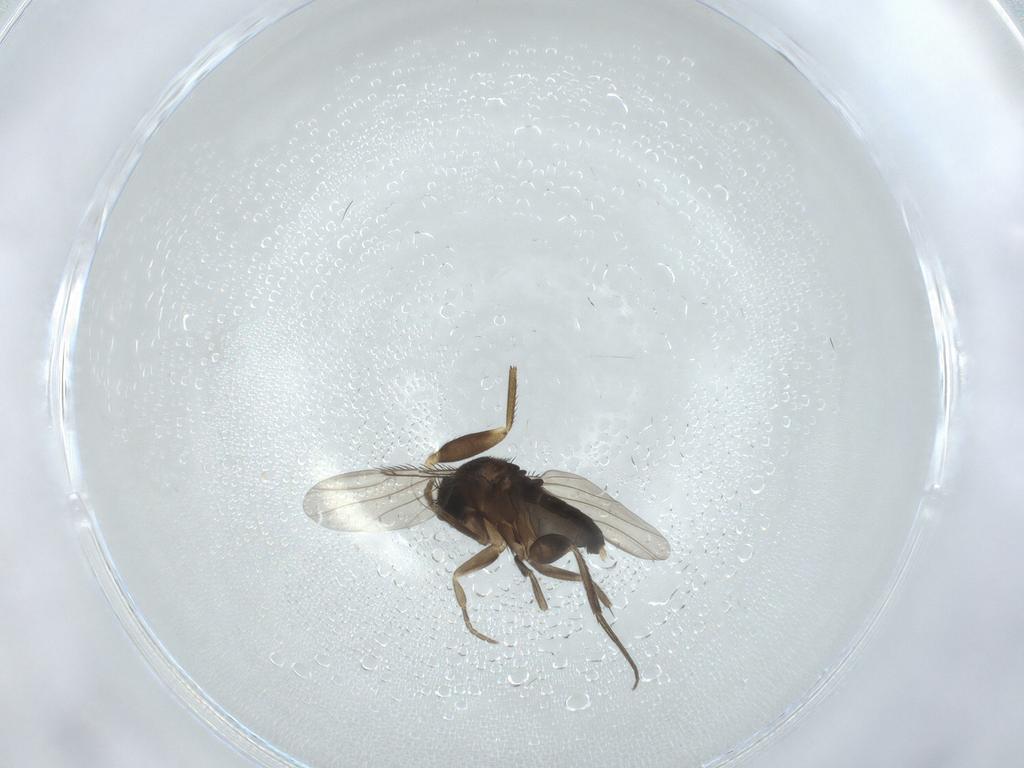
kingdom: Animalia
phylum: Arthropoda
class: Insecta
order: Diptera
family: Phoridae
